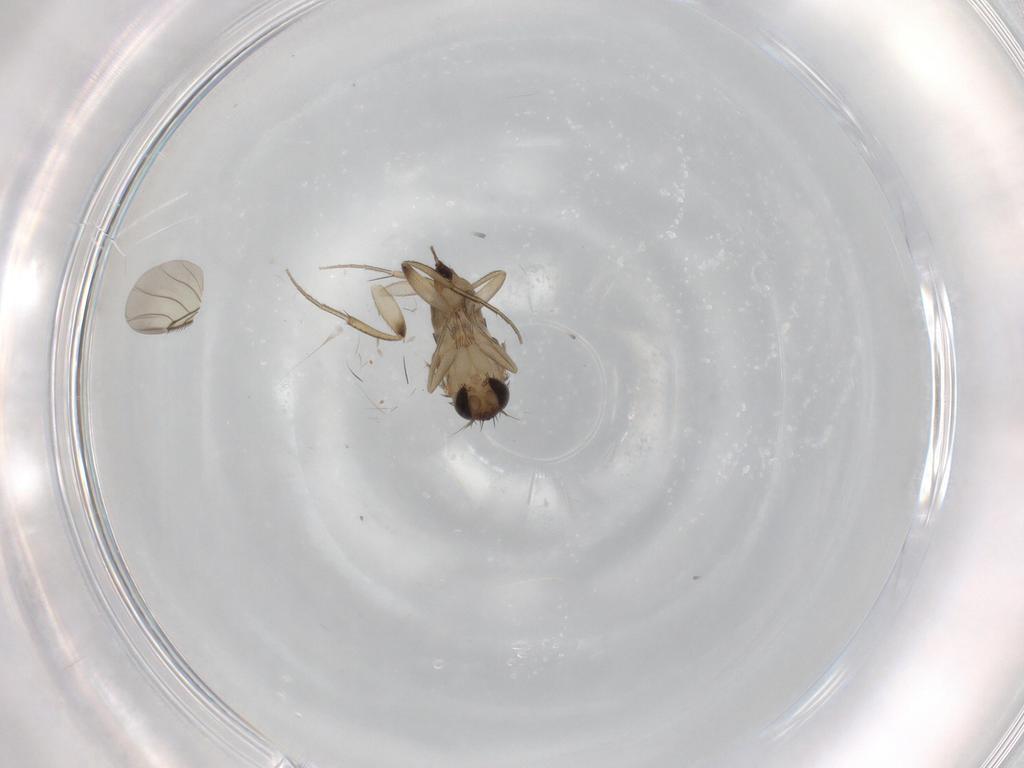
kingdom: Animalia
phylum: Arthropoda
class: Insecta
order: Diptera
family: Phoridae
